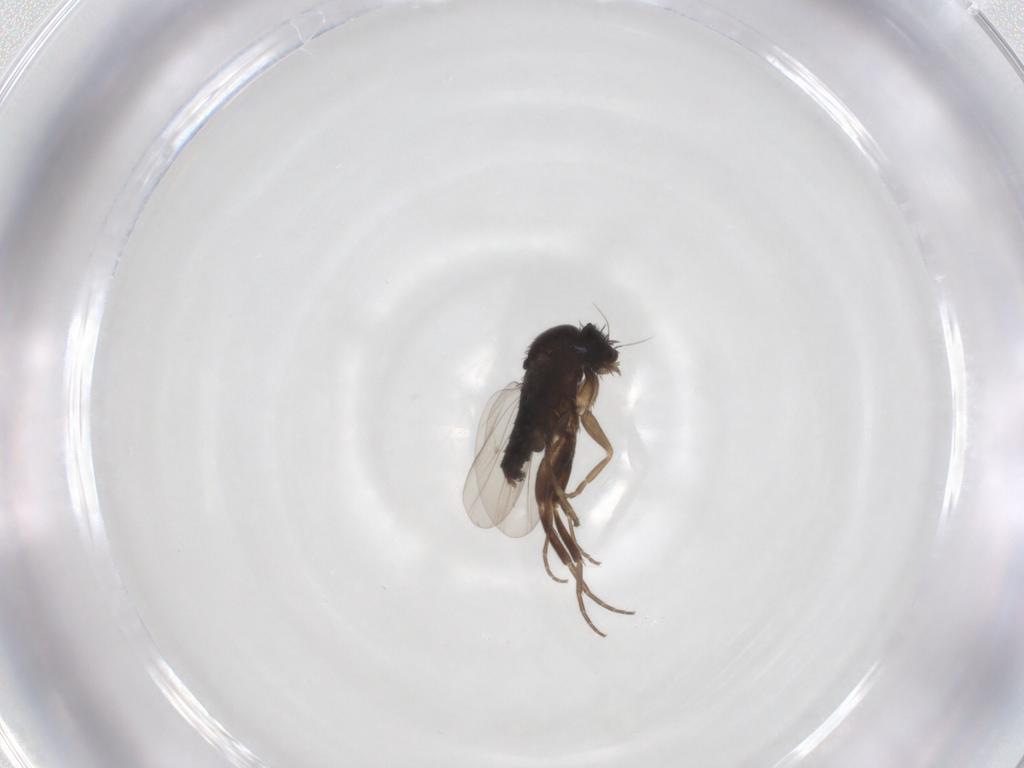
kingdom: Animalia
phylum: Arthropoda
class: Insecta
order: Diptera
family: Phoridae
